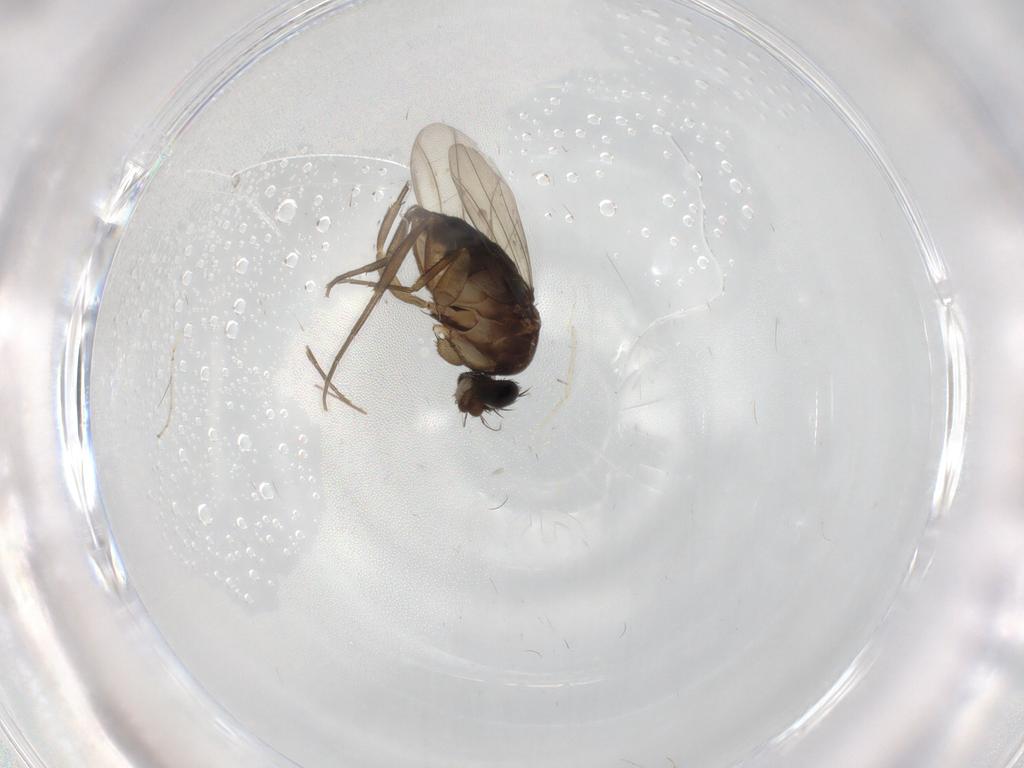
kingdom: Animalia
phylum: Arthropoda
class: Insecta
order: Diptera
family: Chironomidae
